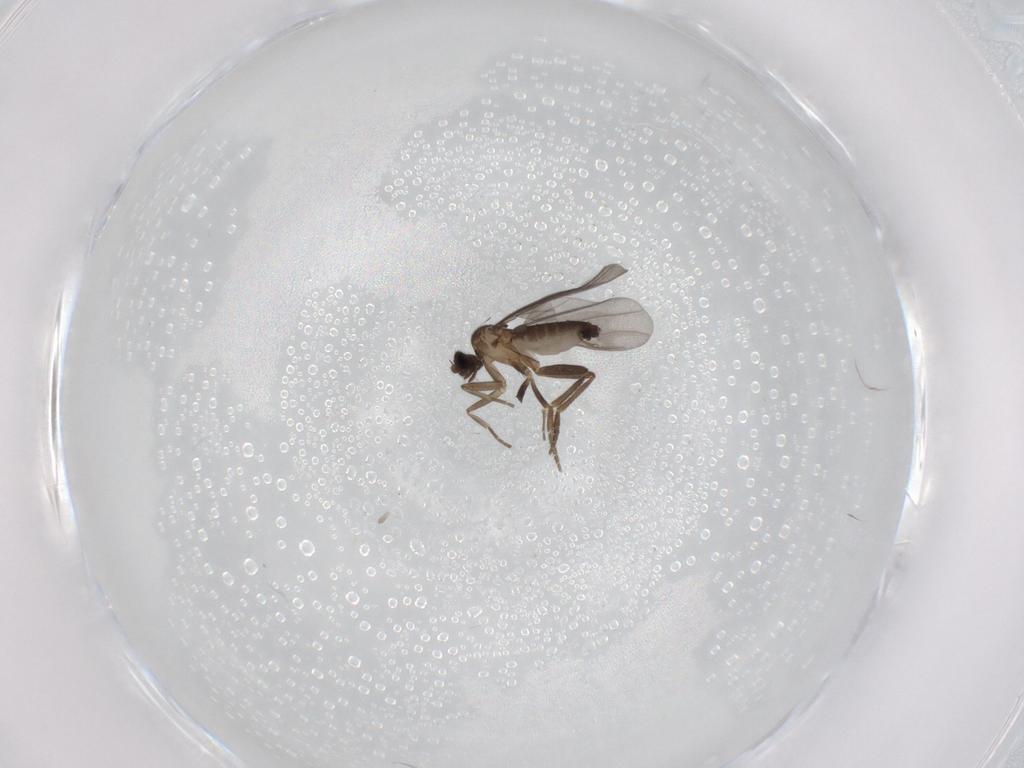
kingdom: Animalia
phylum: Arthropoda
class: Insecta
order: Diptera
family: Phoridae
